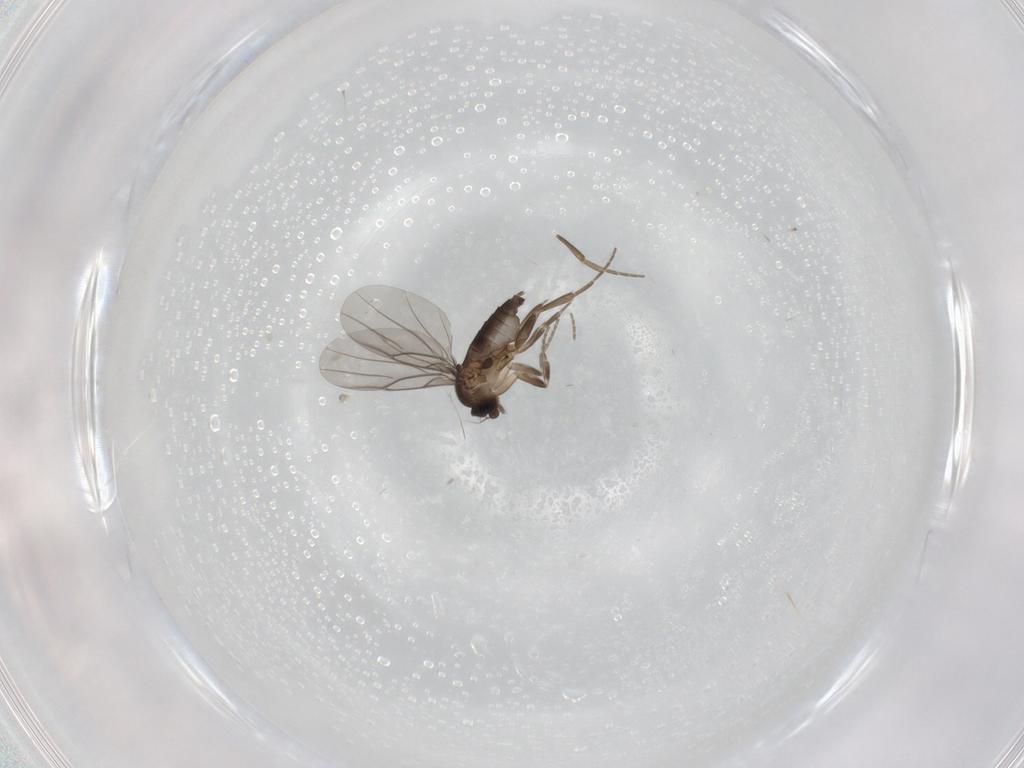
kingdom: Animalia
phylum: Arthropoda
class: Insecta
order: Diptera
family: Phoridae
